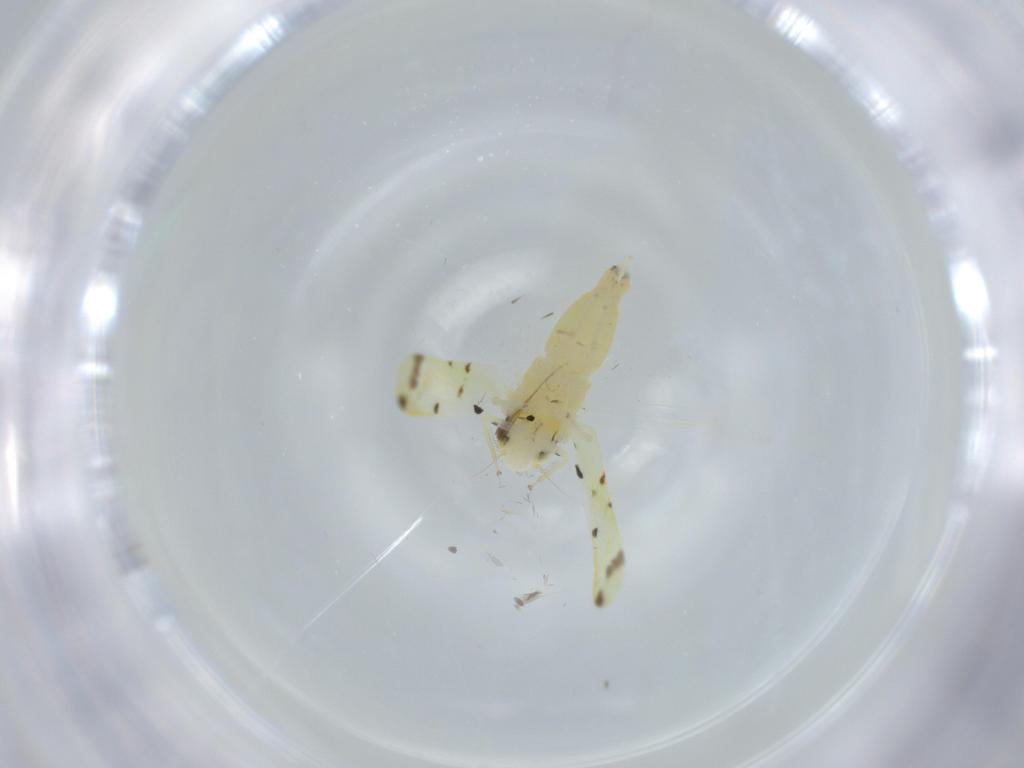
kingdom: Animalia
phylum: Arthropoda
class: Insecta
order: Hemiptera
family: Cicadellidae
